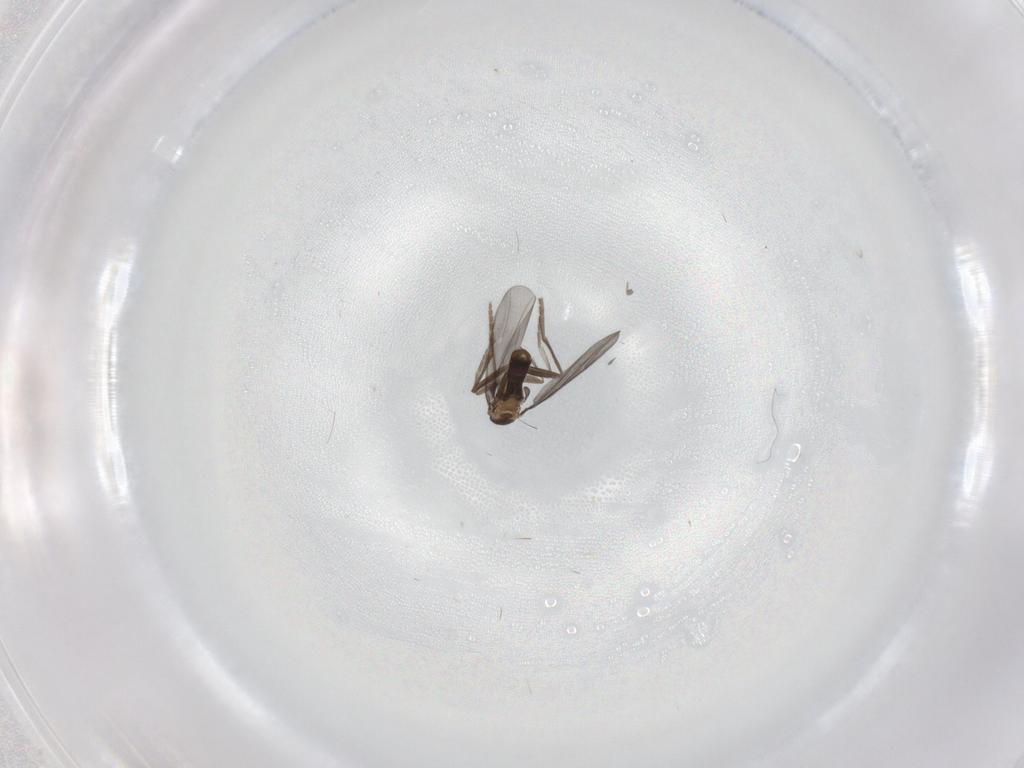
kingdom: Animalia
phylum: Arthropoda
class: Insecta
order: Diptera
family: Phoridae
